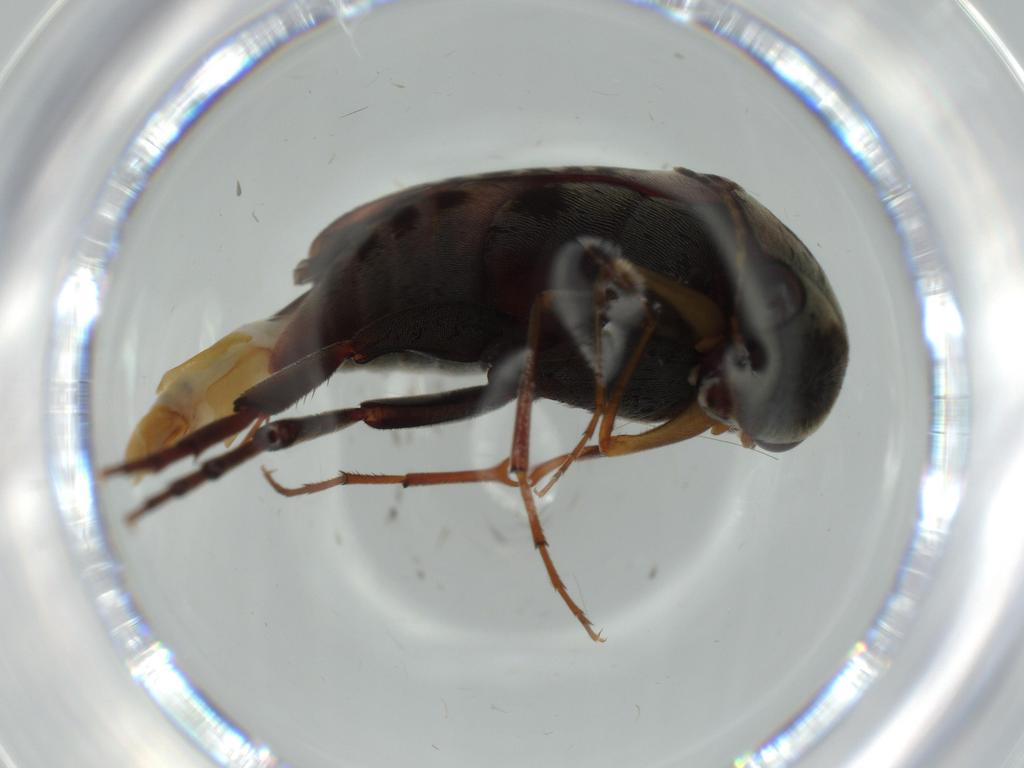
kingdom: Animalia
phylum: Arthropoda
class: Insecta
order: Coleoptera
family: Mordellidae
